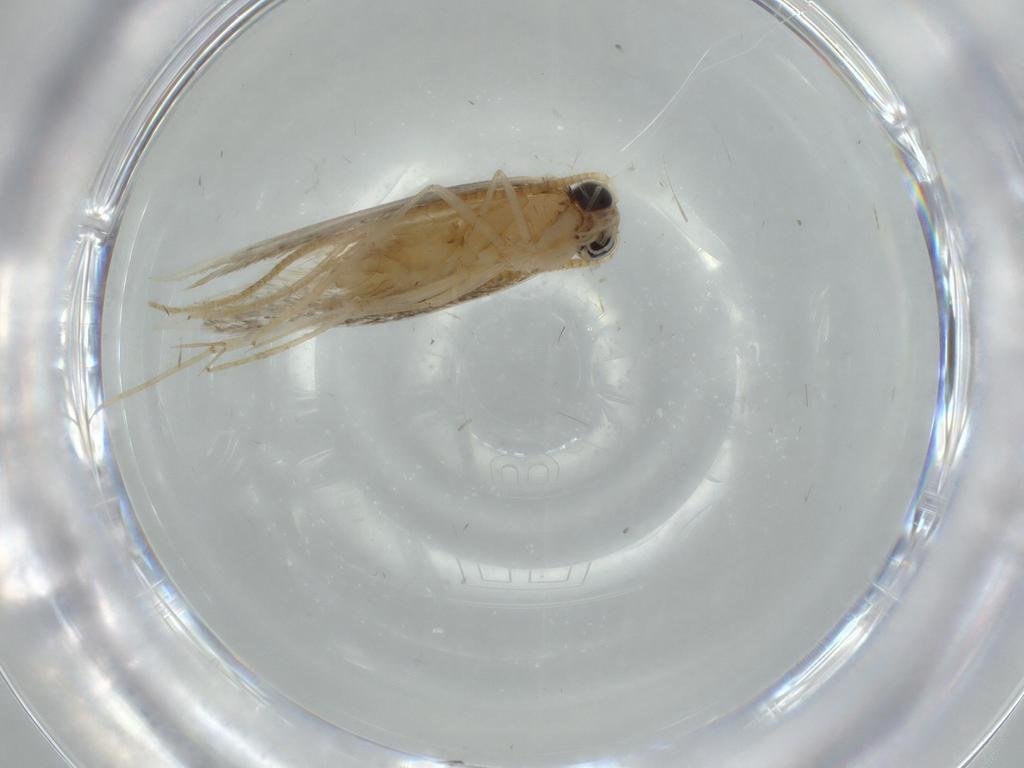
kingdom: Animalia
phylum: Arthropoda
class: Insecta
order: Lepidoptera
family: Tineidae
